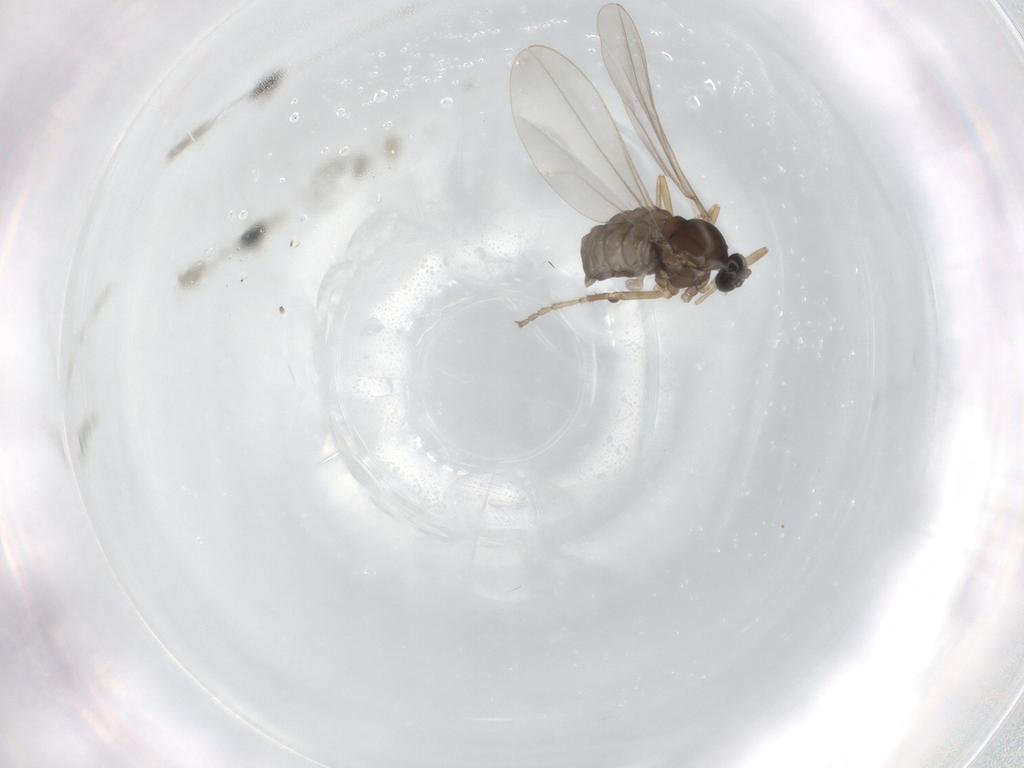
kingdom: Animalia
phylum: Arthropoda
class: Insecta
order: Diptera
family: Cecidomyiidae
